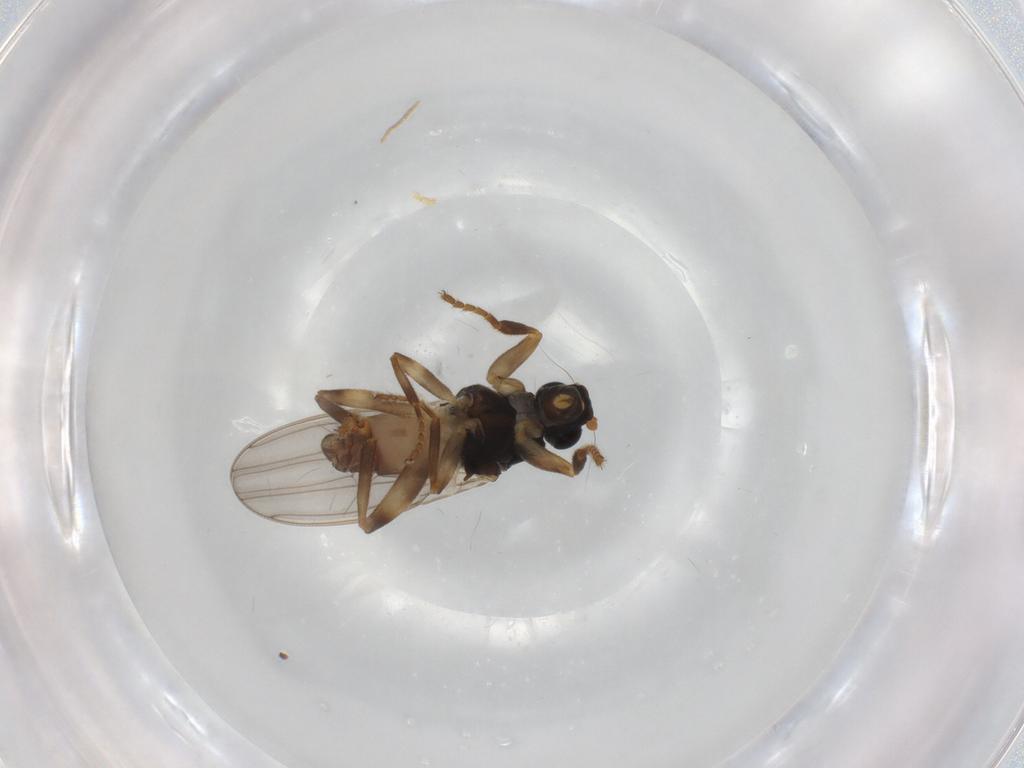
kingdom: Animalia
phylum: Arthropoda
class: Insecta
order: Diptera
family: Sphaeroceridae
